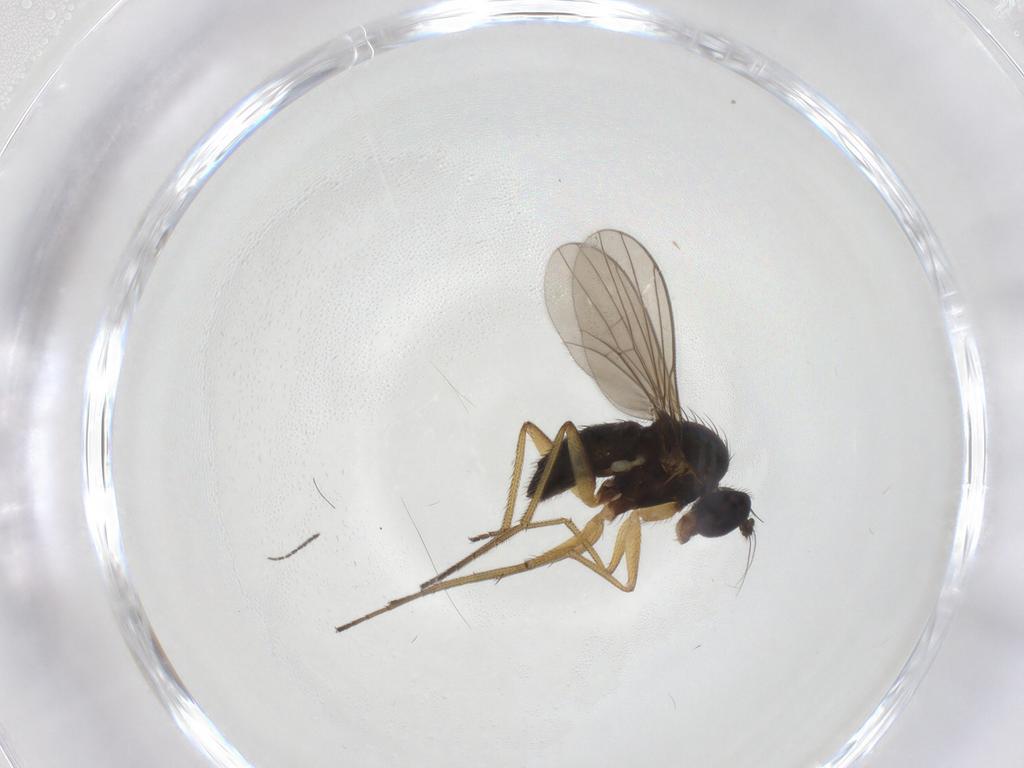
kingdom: Animalia
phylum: Arthropoda
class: Insecta
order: Diptera
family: Dolichopodidae
